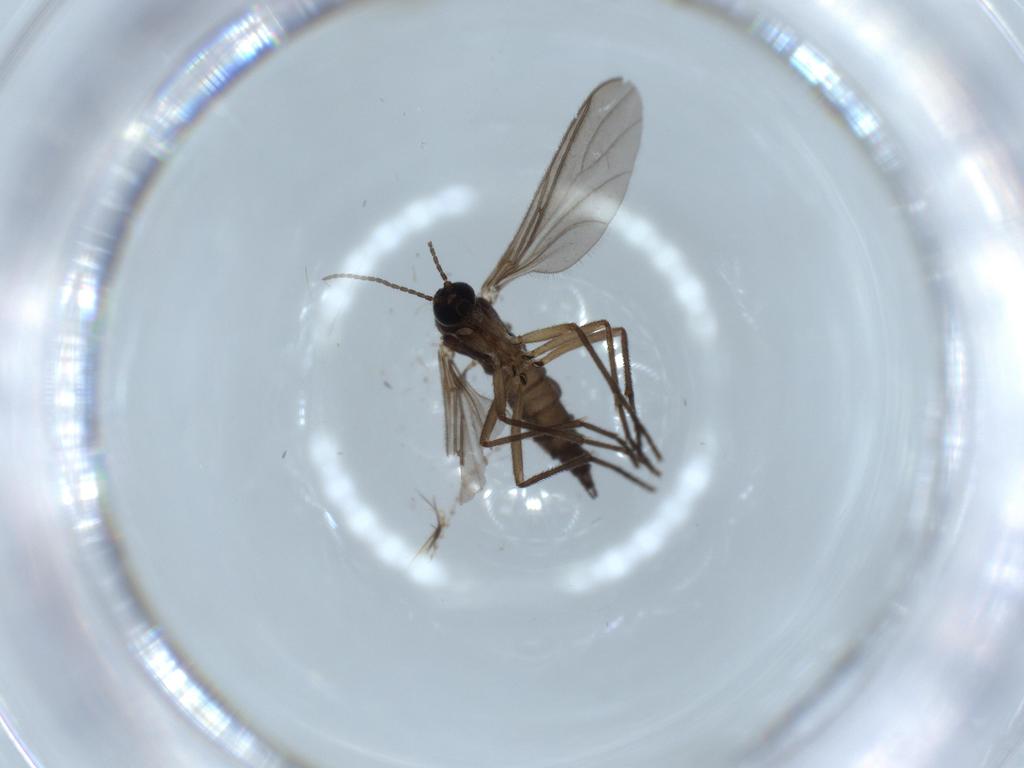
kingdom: Animalia
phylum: Arthropoda
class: Insecta
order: Diptera
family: Cecidomyiidae
